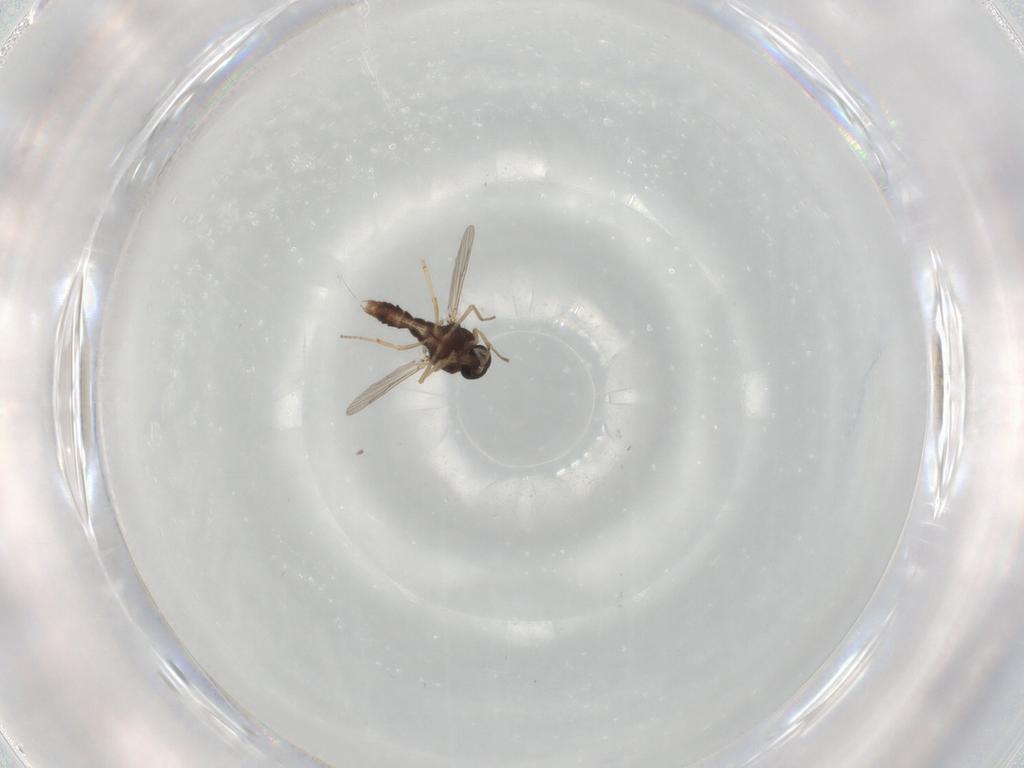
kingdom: Animalia
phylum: Arthropoda
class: Insecta
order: Diptera
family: Ceratopogonidae
